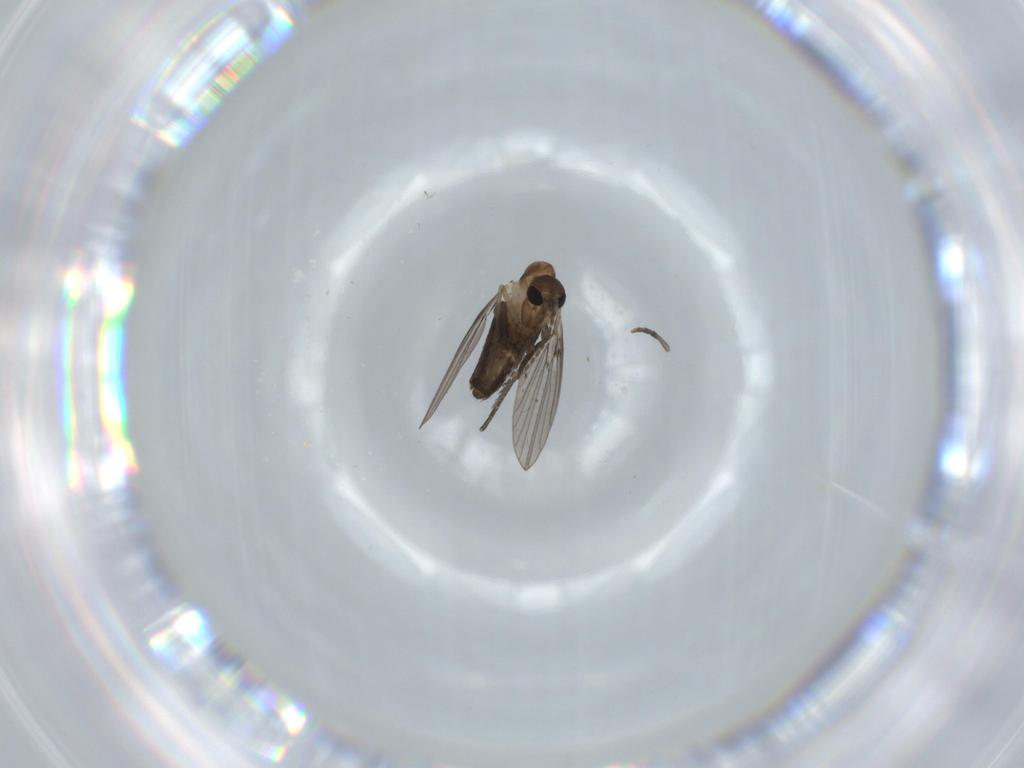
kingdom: Animalia
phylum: Arthropoda
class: Insecta
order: Diptera
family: Psychodidae
